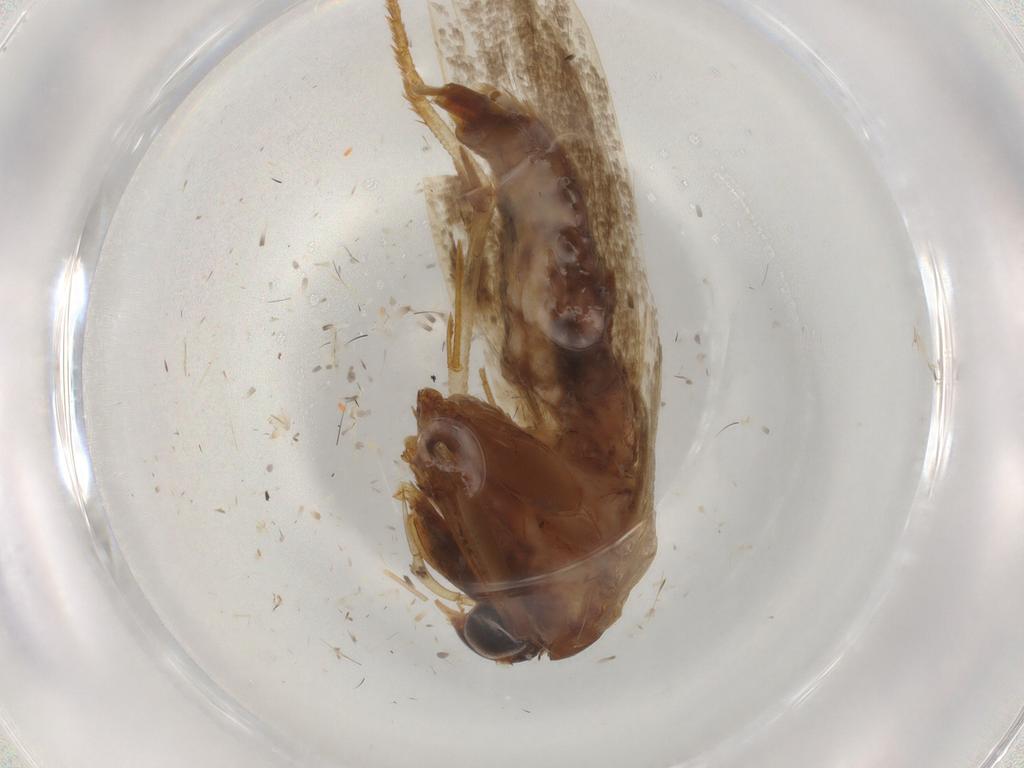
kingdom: Animalia
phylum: Arthropoda
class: Insecta
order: Lepidoptera
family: Blastobasidae
